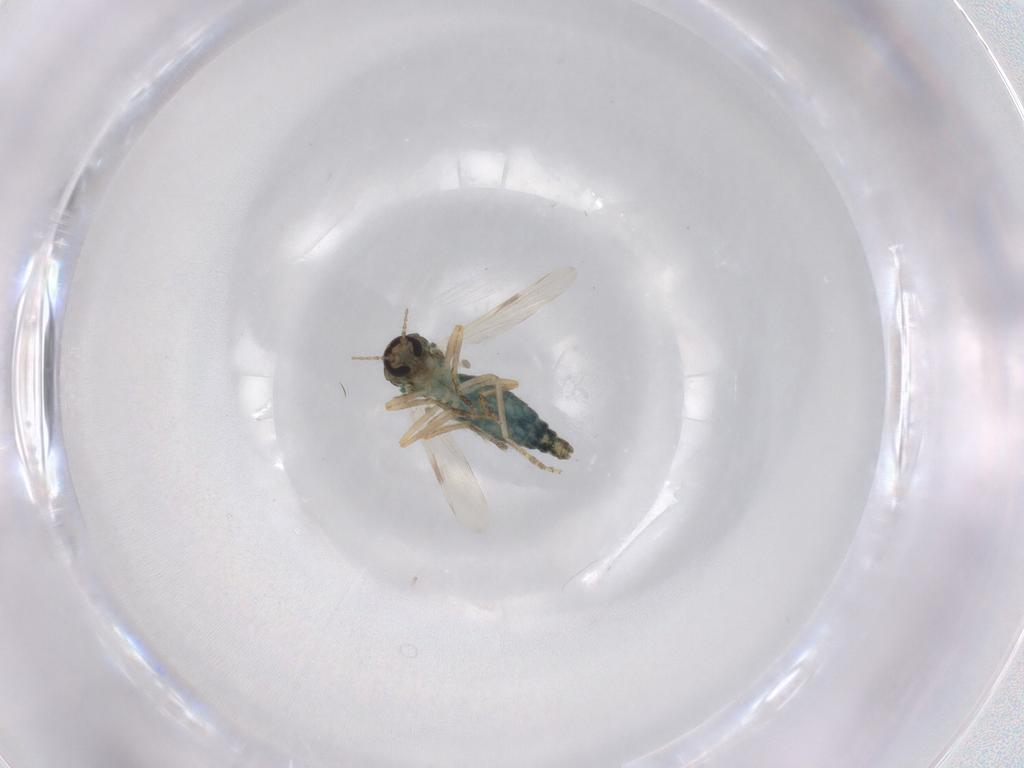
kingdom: Animalia
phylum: Arthropoda
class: Insecta
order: Diptera
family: Ceratopogonidae
